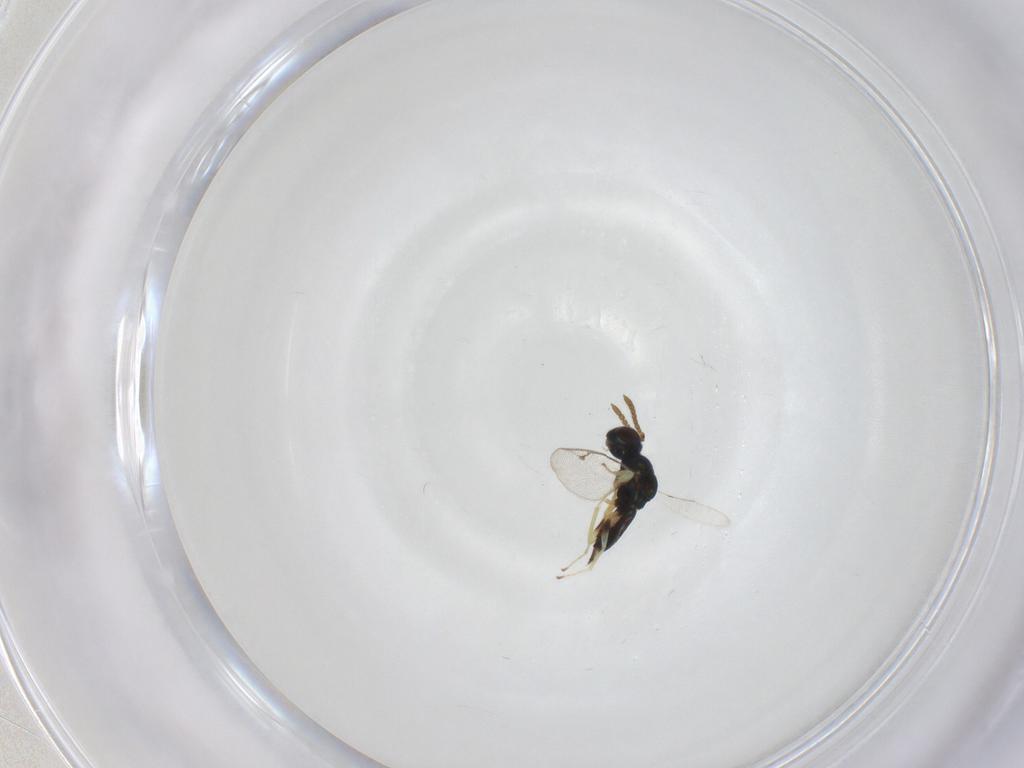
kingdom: Animalia
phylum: Arthropoda
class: Insecta
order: Hymenoptera
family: Pteromalidae
